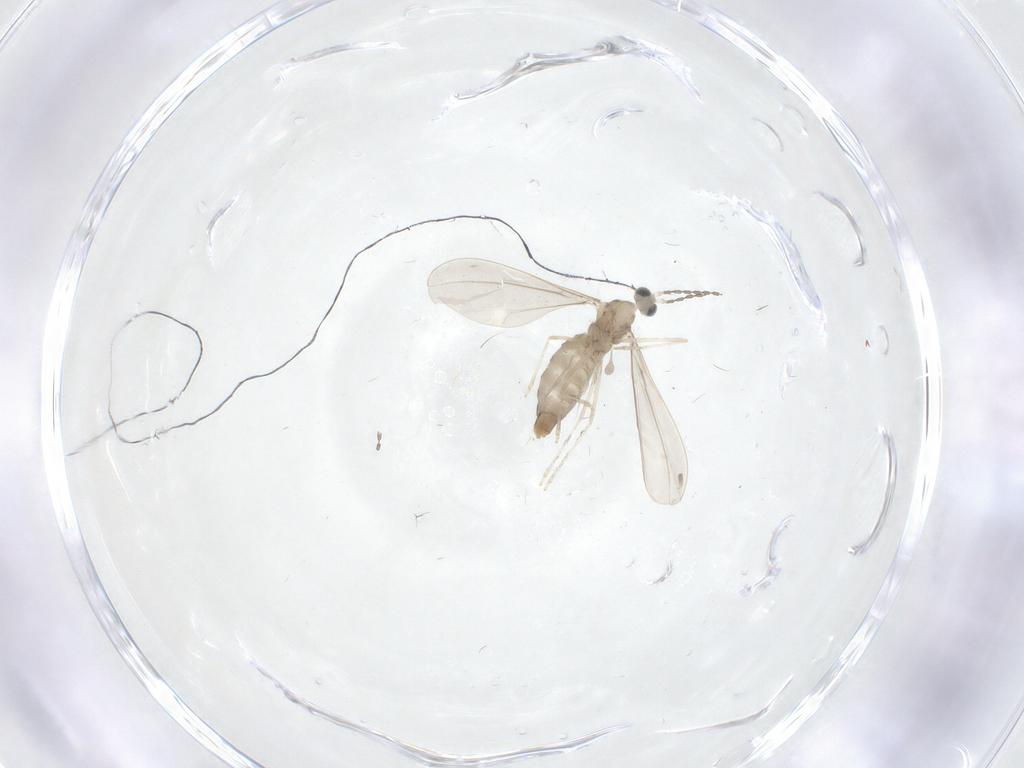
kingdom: Animalia
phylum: Arthropoda
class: Insecta
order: Diptera
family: Cecidomyiidae
